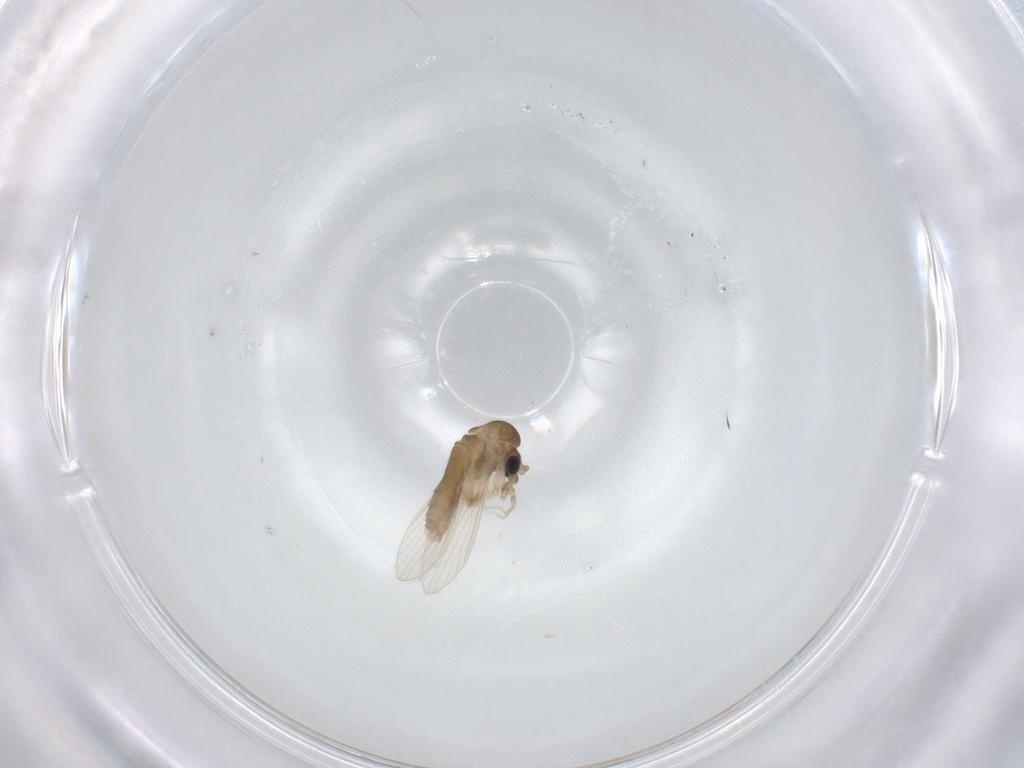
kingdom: Animalia
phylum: Arthropoda
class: Insecta
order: Diptera
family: Psychodidae
